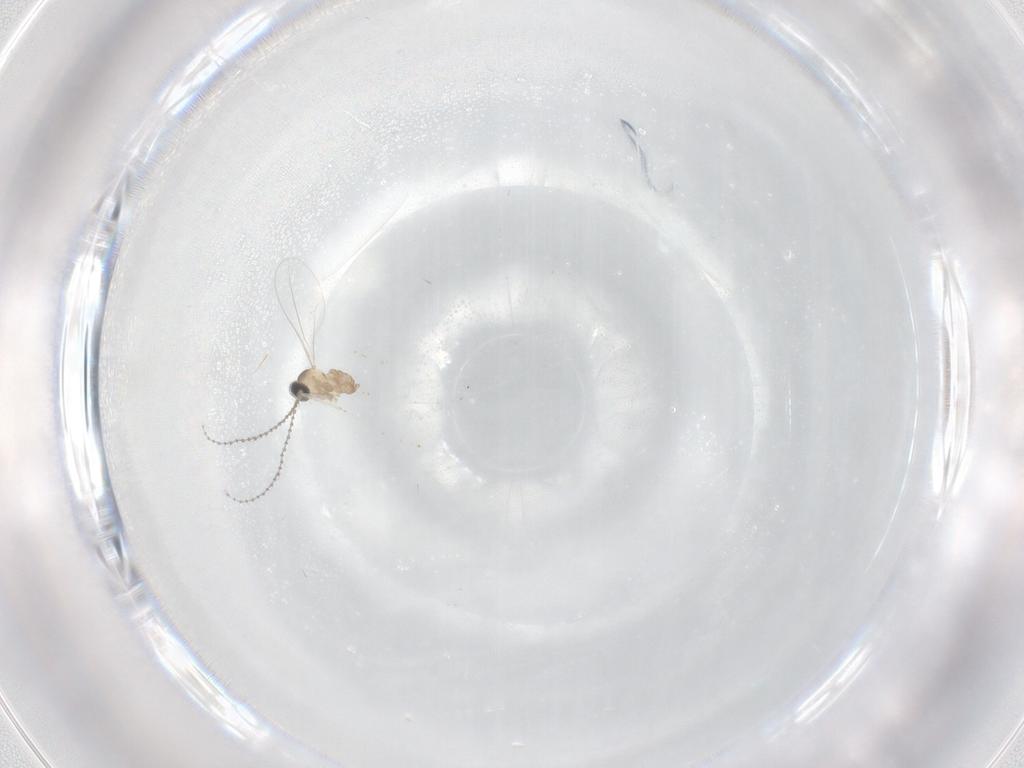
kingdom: Animalia
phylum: Arthropoda
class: Insecta
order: Diptera
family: Cecidomyiidae
